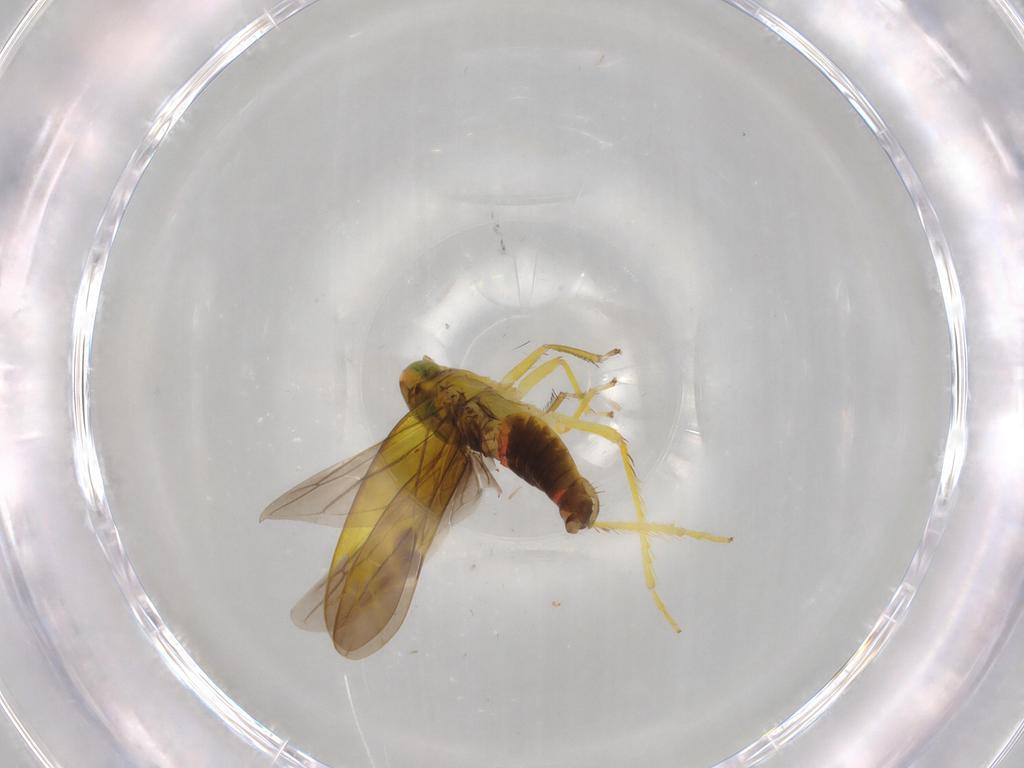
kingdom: Animalia
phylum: Arthropoda
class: Insecta
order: Hemiptera
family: Cicadellidae
